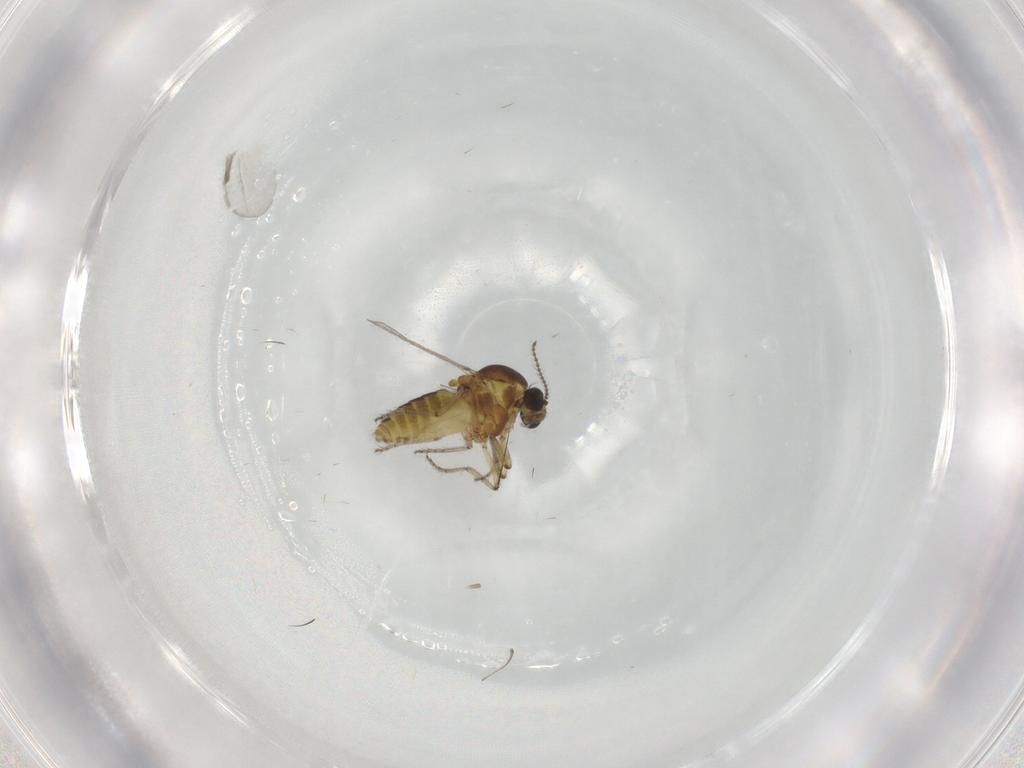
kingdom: Animalia
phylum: Arthropoda
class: Insecta
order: Diptera
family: Ceratopogonidae
